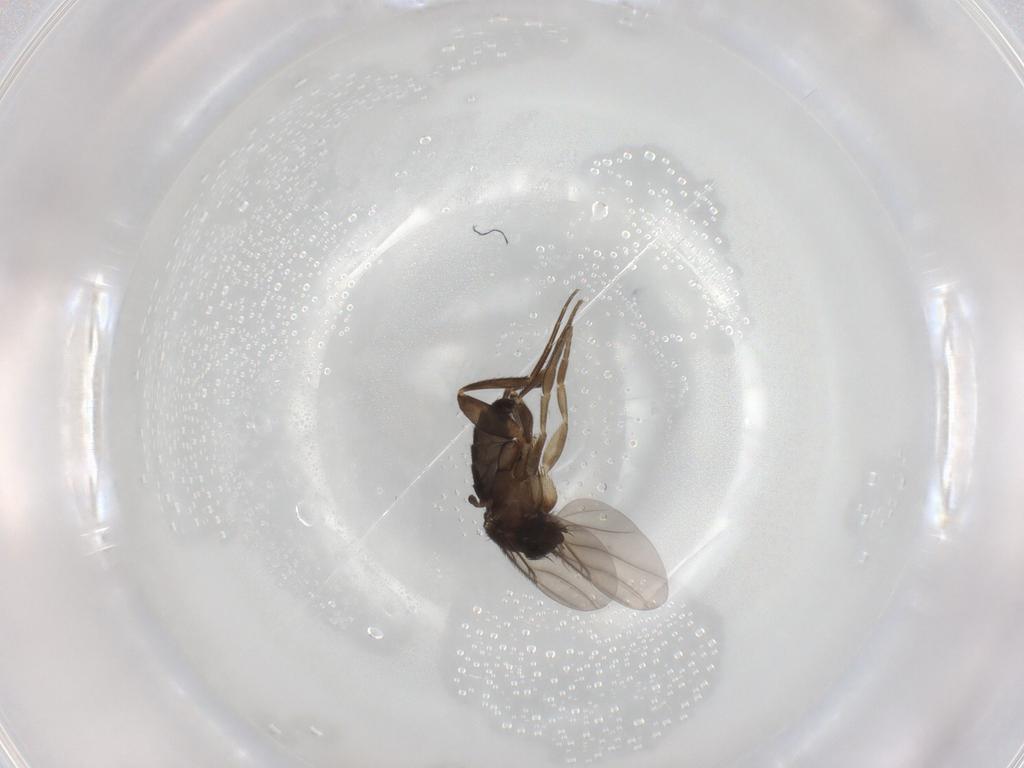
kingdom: Animalia
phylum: Arthropoda
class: Insecta
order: Diptera
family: Phoridae
